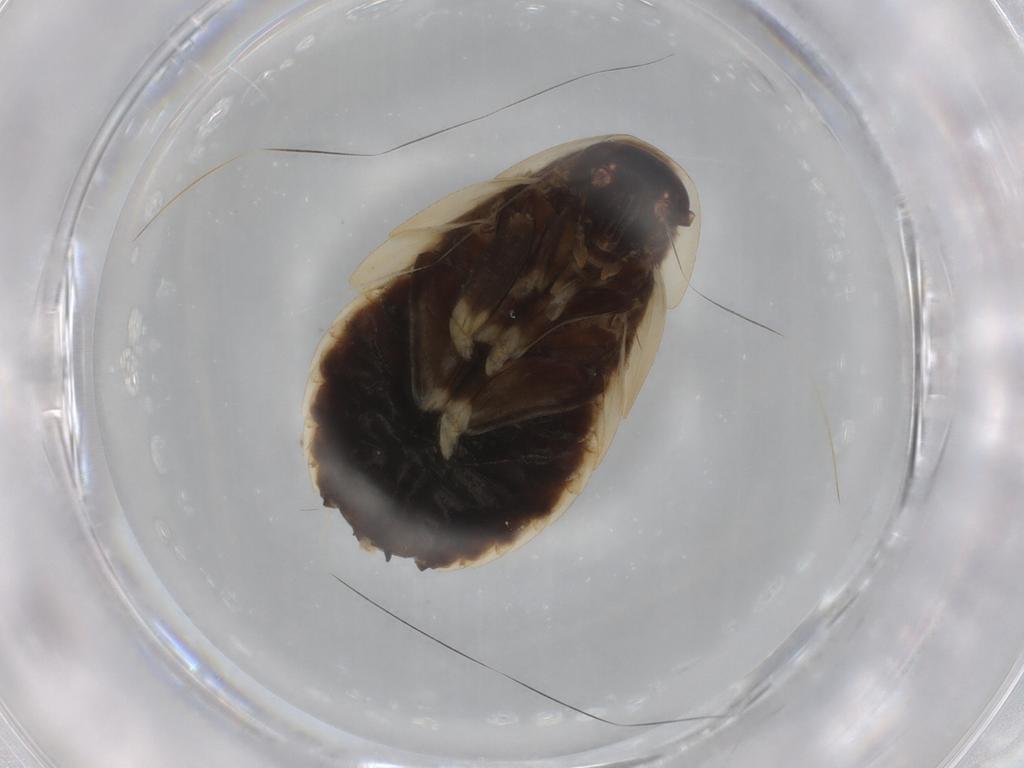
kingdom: Animalia
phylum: Arthropoda
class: Insecta
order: Blattodea
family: Ectobiidae
